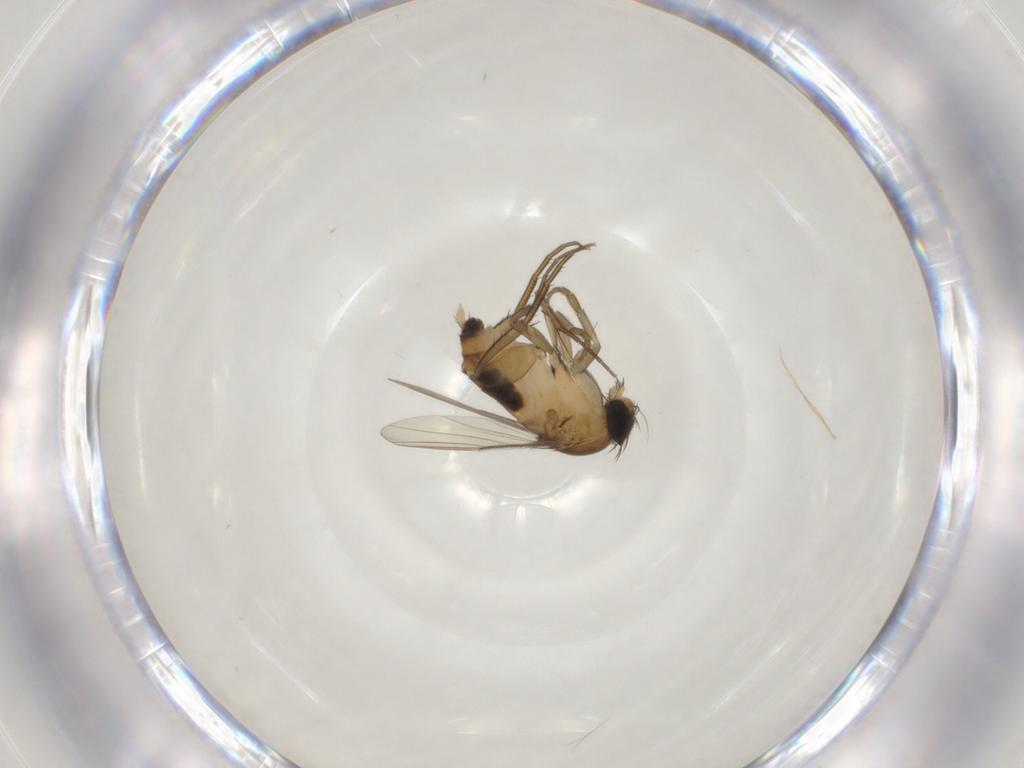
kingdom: Animalia
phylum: Arthropoda
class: Insecta
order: Diptera
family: Phoridae
